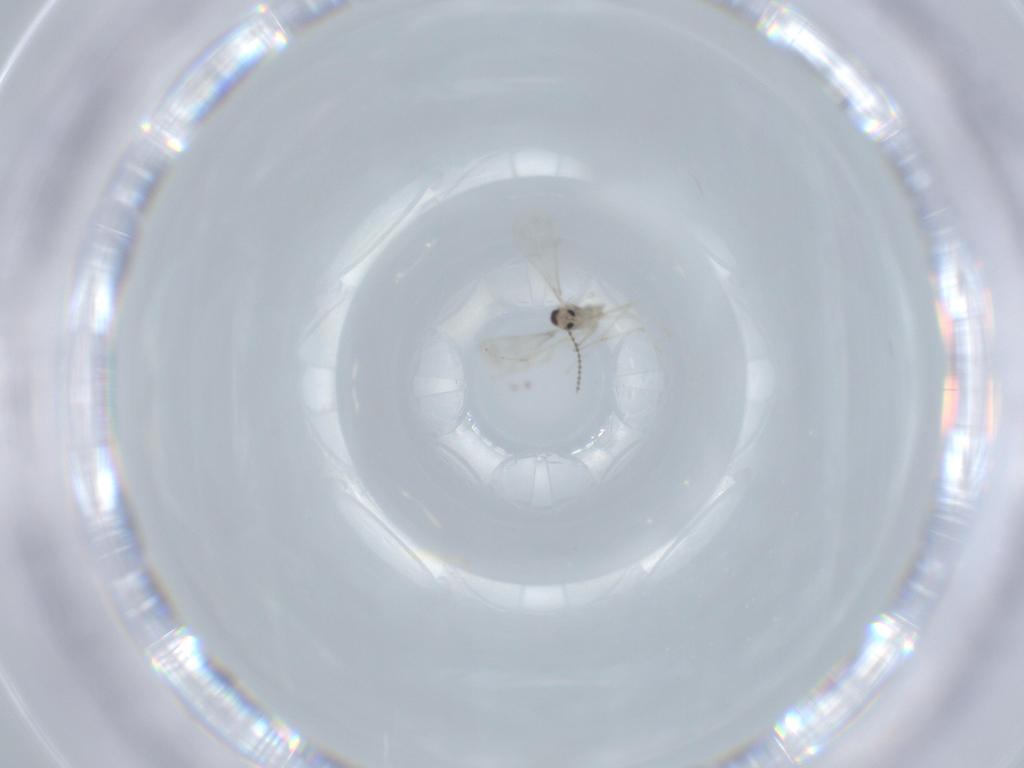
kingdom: Animalia
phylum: Arthropoda
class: Insecta
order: Diptera
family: Cecidomyiidae
